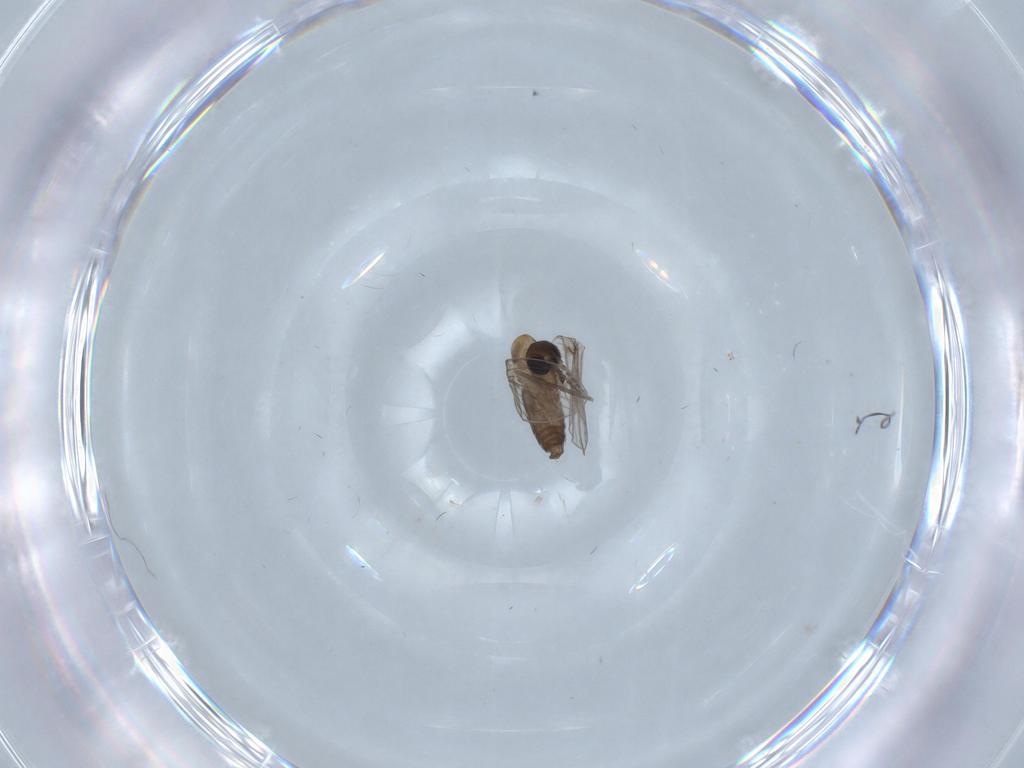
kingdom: Animalia
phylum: Arthropoda
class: Insecta
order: Diptera
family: Psychodidae
